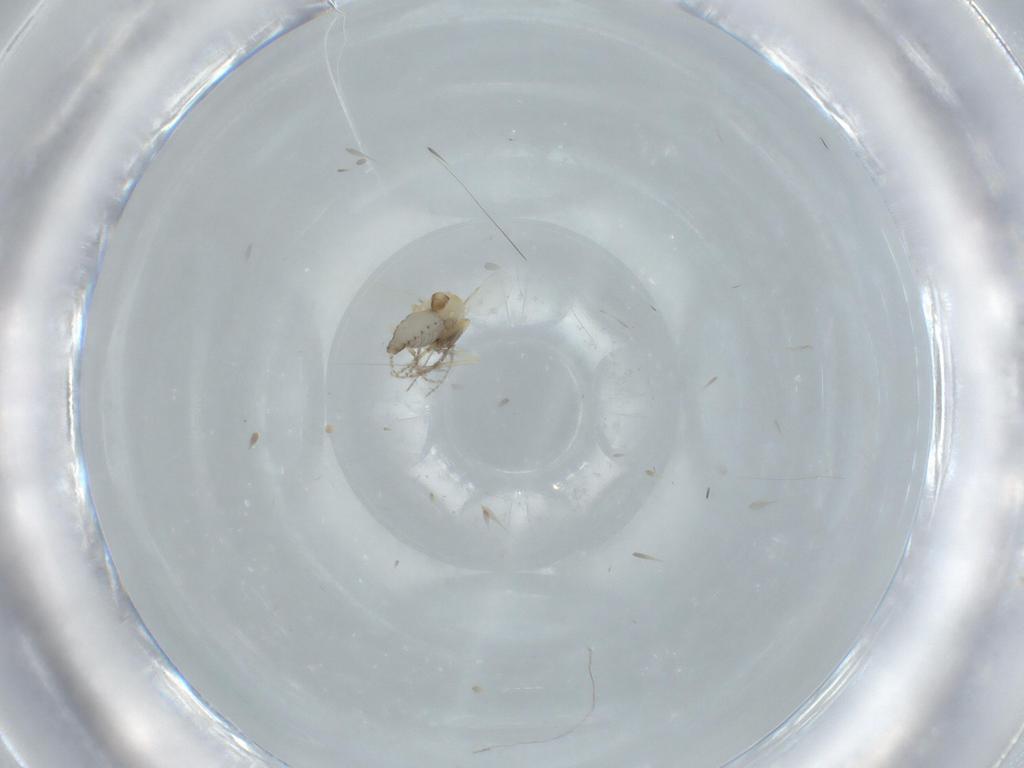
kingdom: Animalia
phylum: Arthropoda
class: Insecta
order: Diptera
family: Ceratopogonidae
